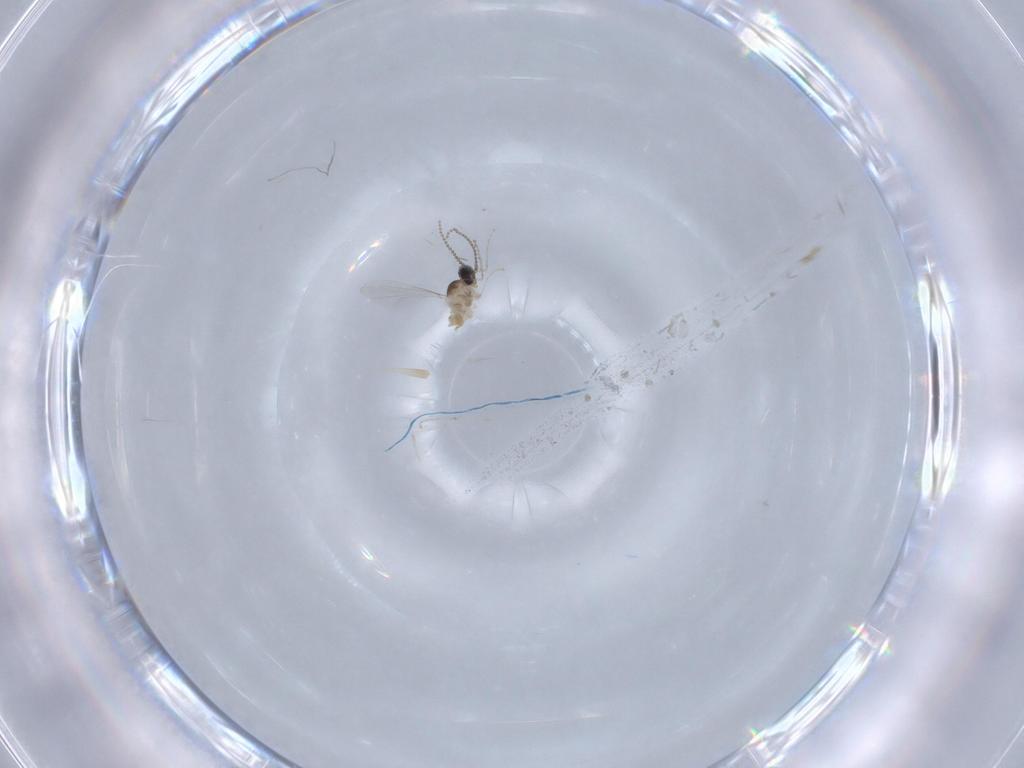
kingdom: Animalia
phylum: Arthropoda
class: Insecta
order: Diptera
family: Cecidomyiidae
